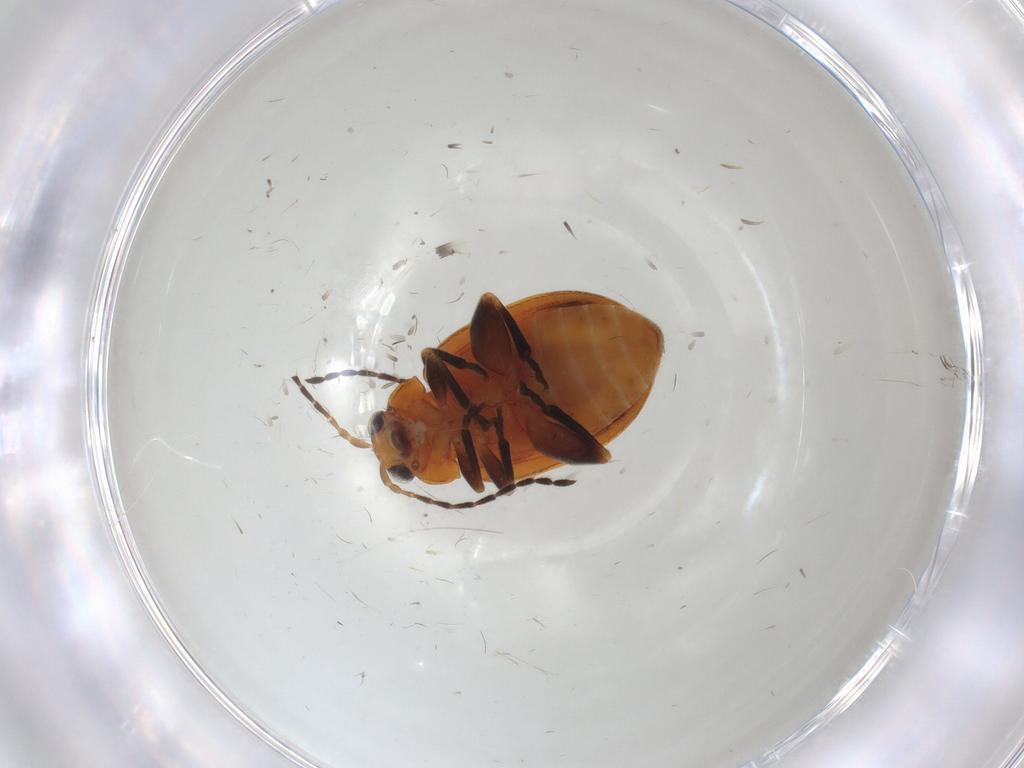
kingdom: Animalia
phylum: Arthropoda
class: Insecta
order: Coleoptera
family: Chrysomelidae
